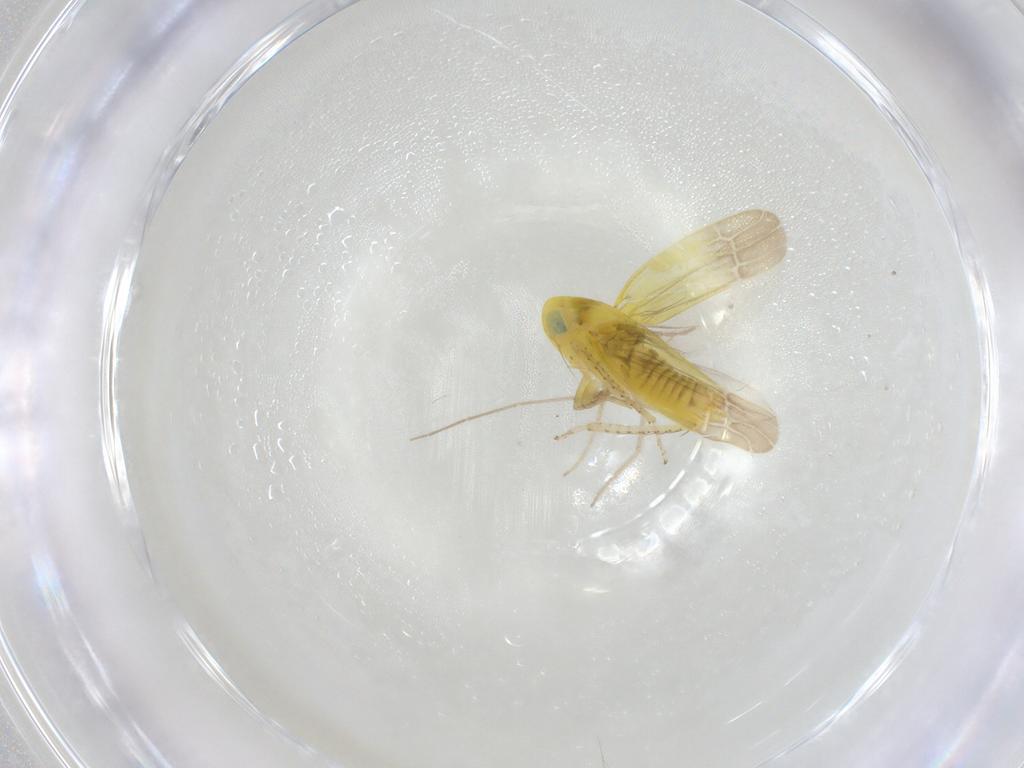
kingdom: Animalia
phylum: Arthropoda
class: Insecta
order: Hemiptera
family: Cicadellidae
